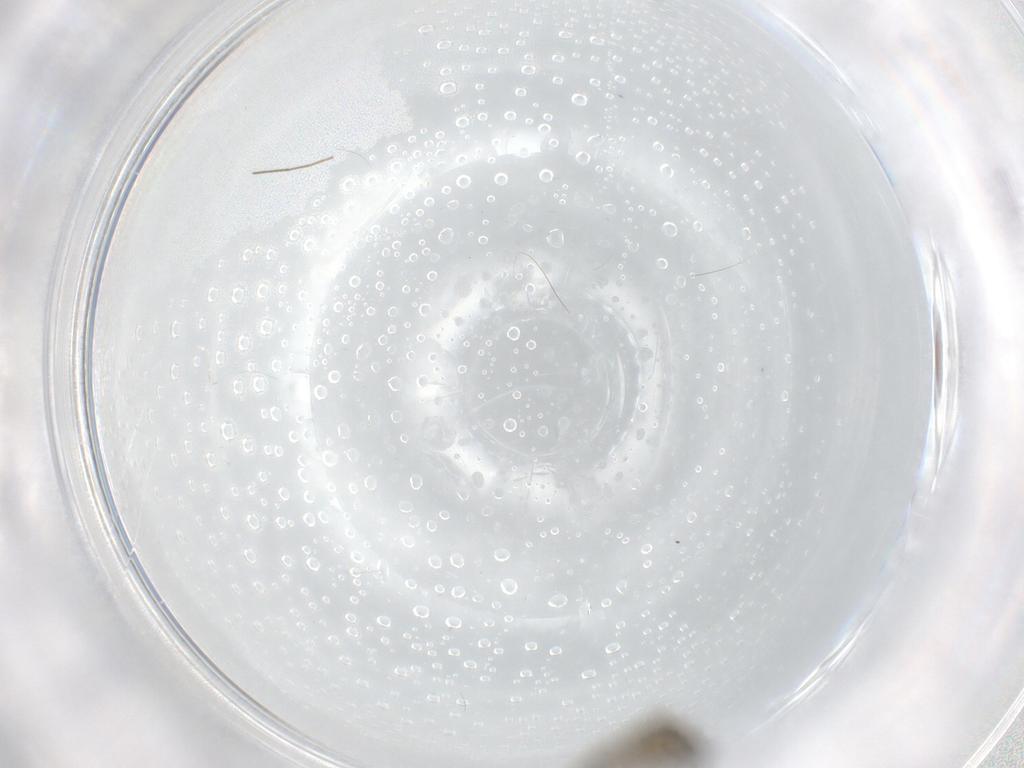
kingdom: Animalia
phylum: Arthropoda
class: Insecta
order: Diptera
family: Chironomidae
